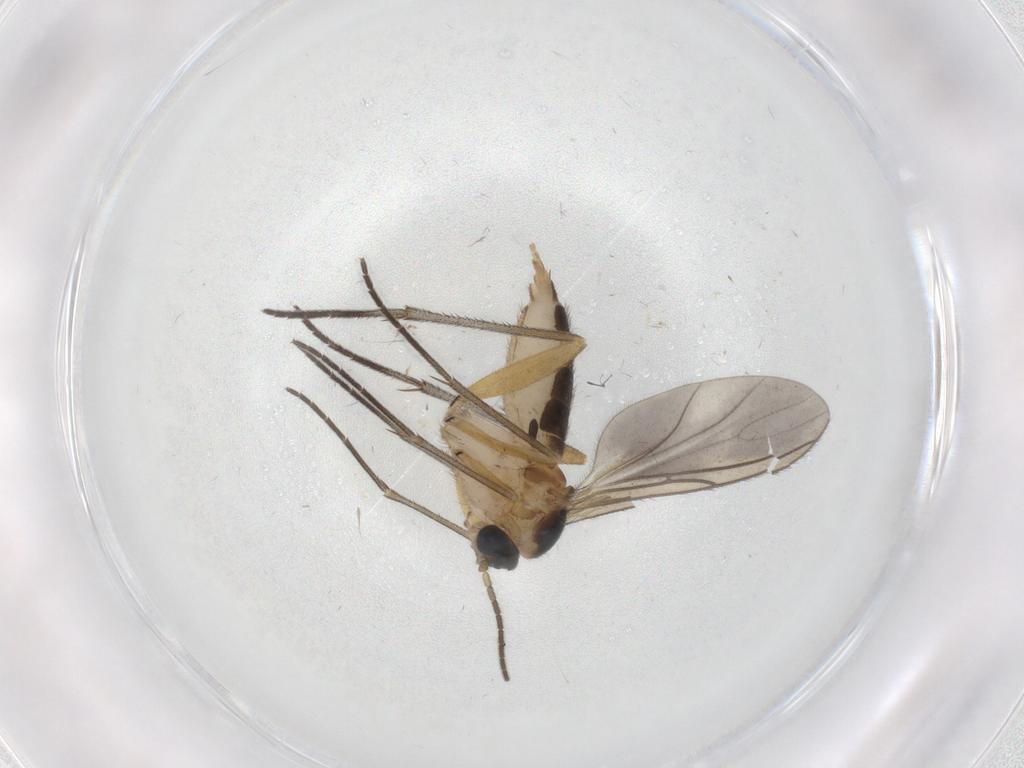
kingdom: Animalia
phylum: Arthropoda
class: Insecta
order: Diptera
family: Sciaridae
